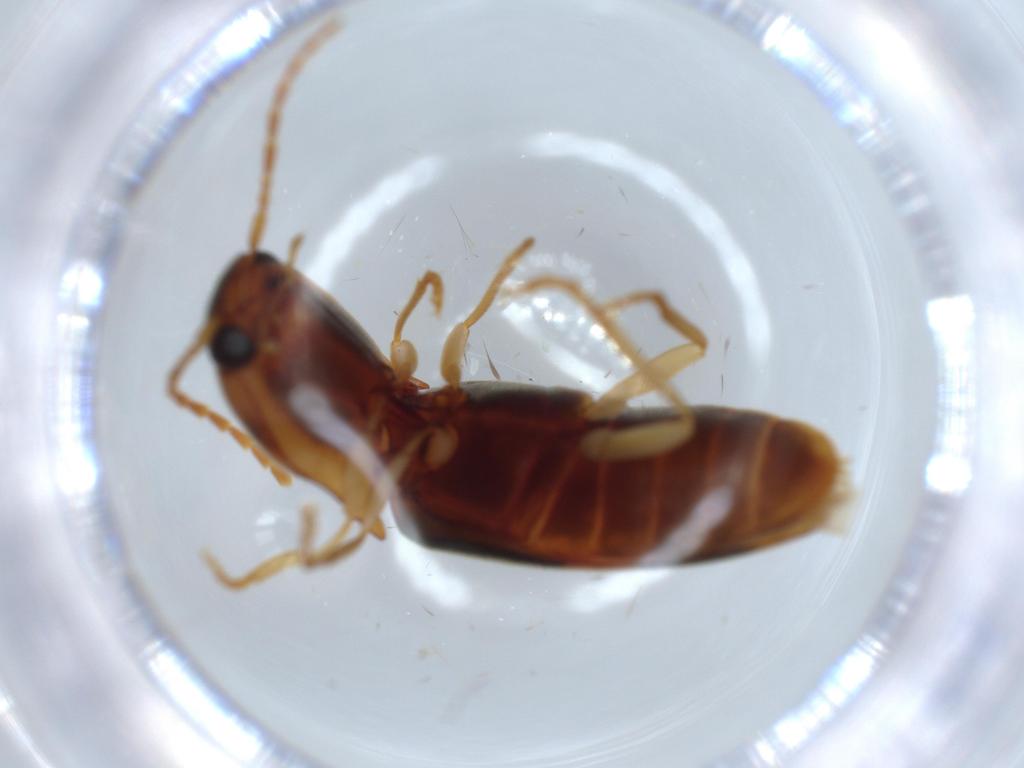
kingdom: Animalia
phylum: Arthropoda
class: Insecta
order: Coleoptera
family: Ptilodactylidae
